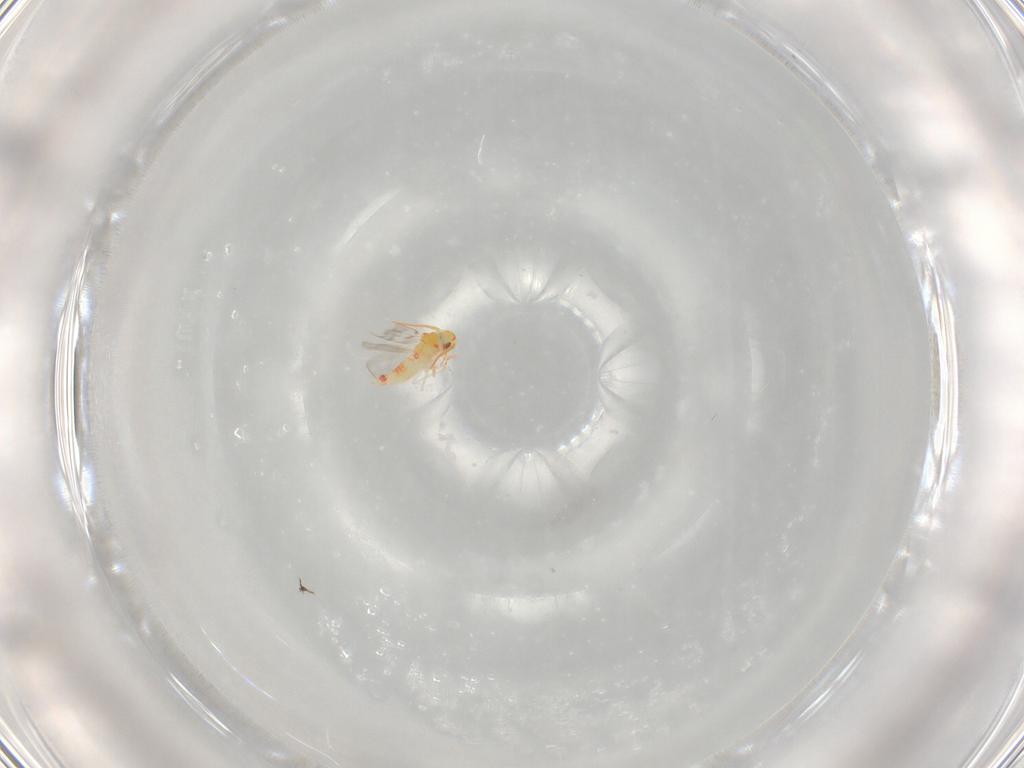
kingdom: Animalia
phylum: Arthropoda
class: Insecta
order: Hemiptera
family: Aleyrodidae
